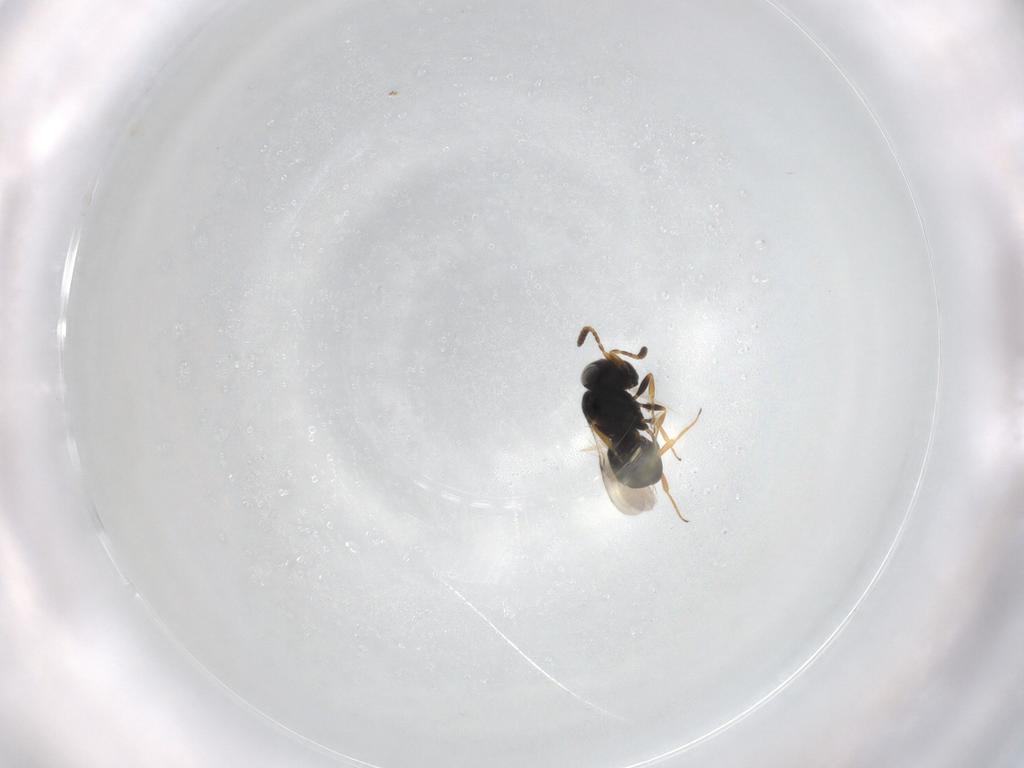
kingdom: Animalia
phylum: Arthropoda
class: Insecta
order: Hymenoptera
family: Scelionidae
